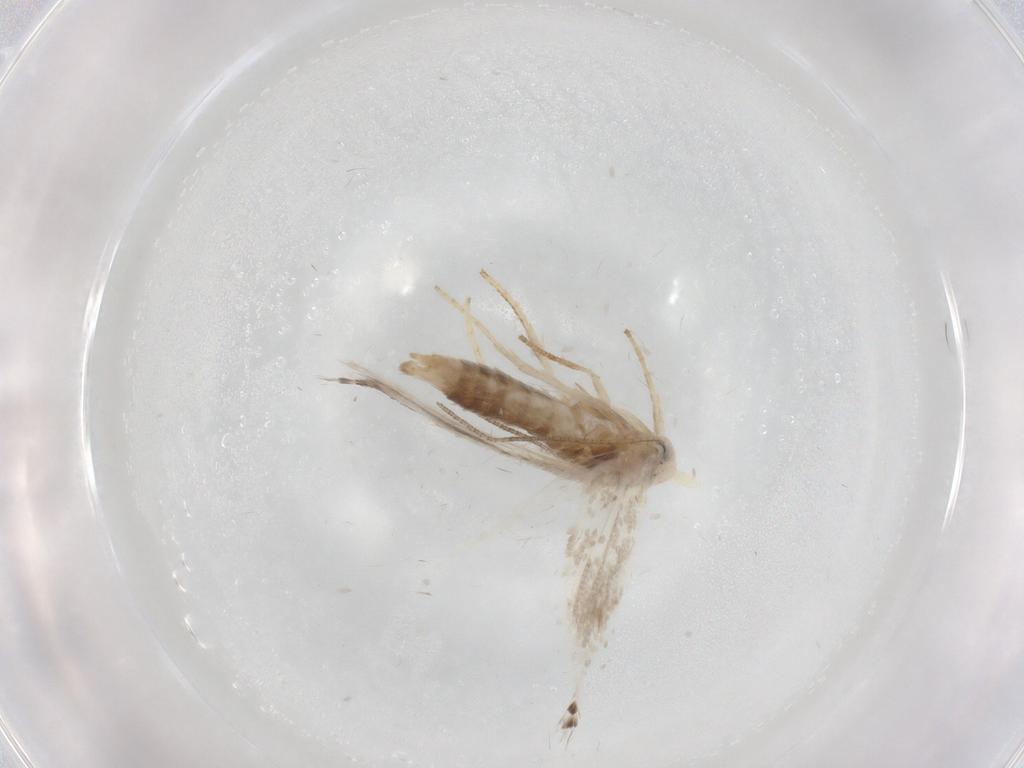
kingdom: Animalia
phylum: Arthropoda
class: Insecta
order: Lepidoptera
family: Gracillariidae
